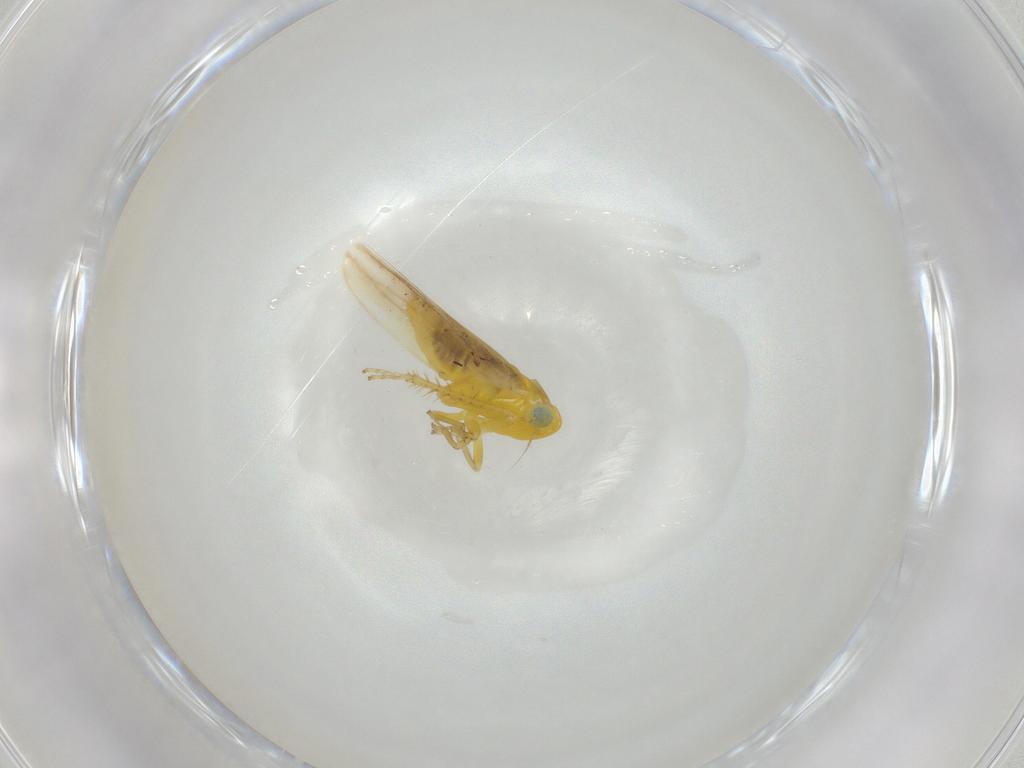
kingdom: Animalia
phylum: Arthropoda
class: Insecta
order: Hemiptera
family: Cicadellidae
